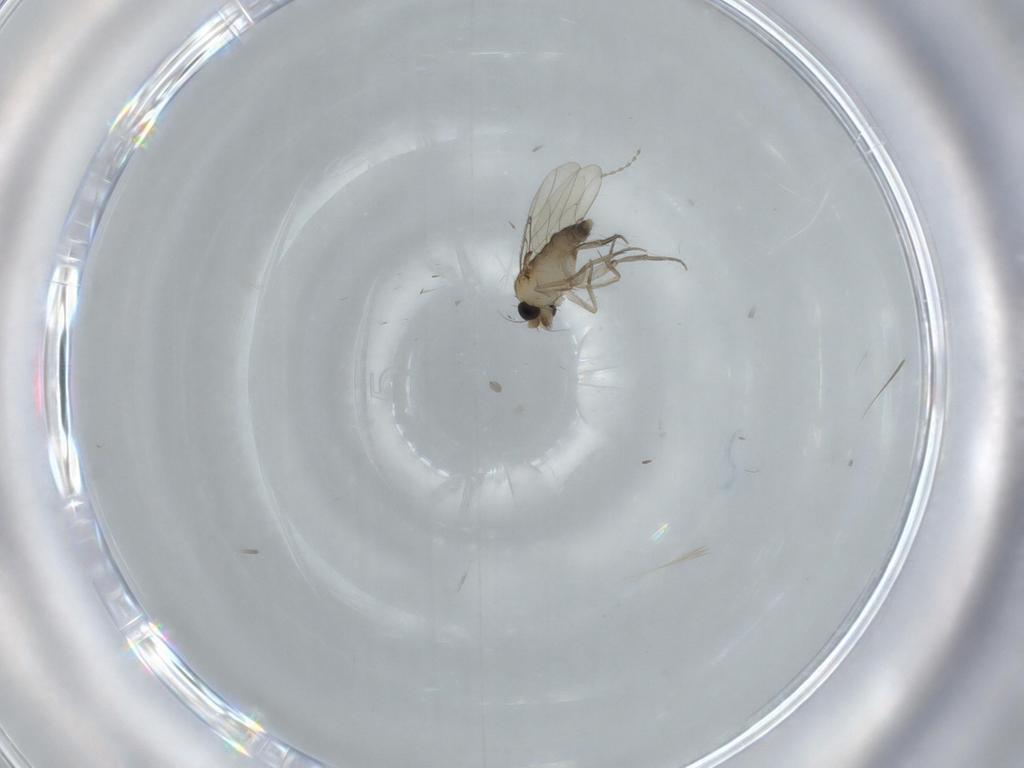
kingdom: Animalia
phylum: Arthropoda
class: Insecta
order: Diptera
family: Phoridae
